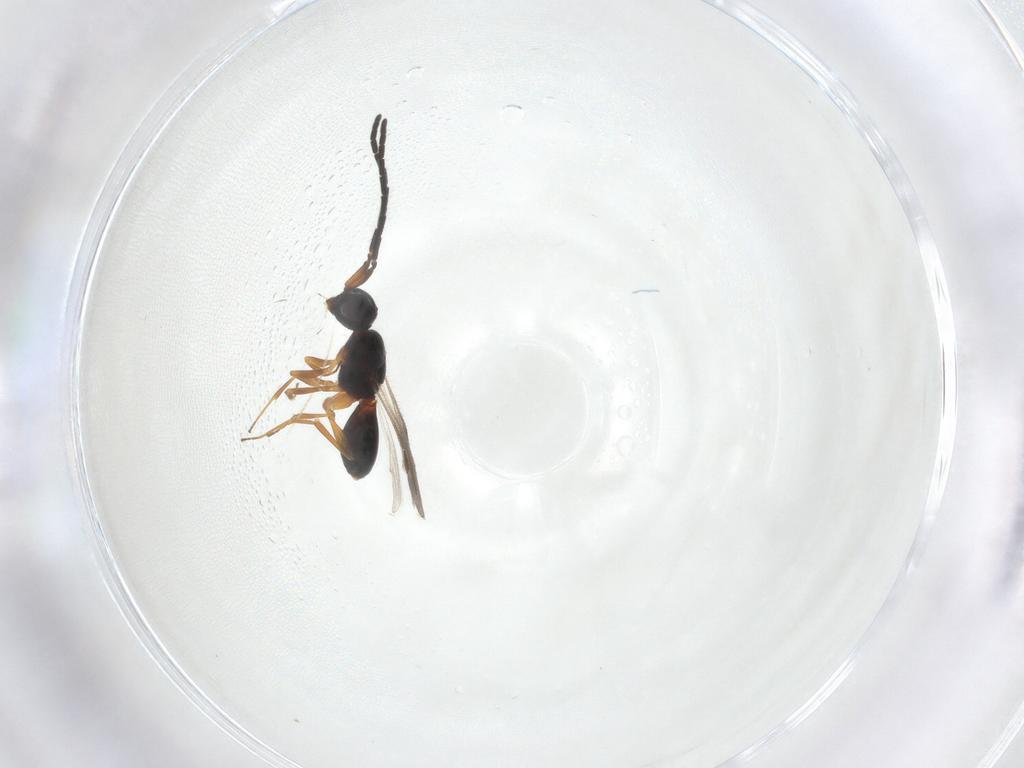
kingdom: Animalia
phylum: Arthropoda
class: Insecta
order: Hymenoptera
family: Megaspilidae
